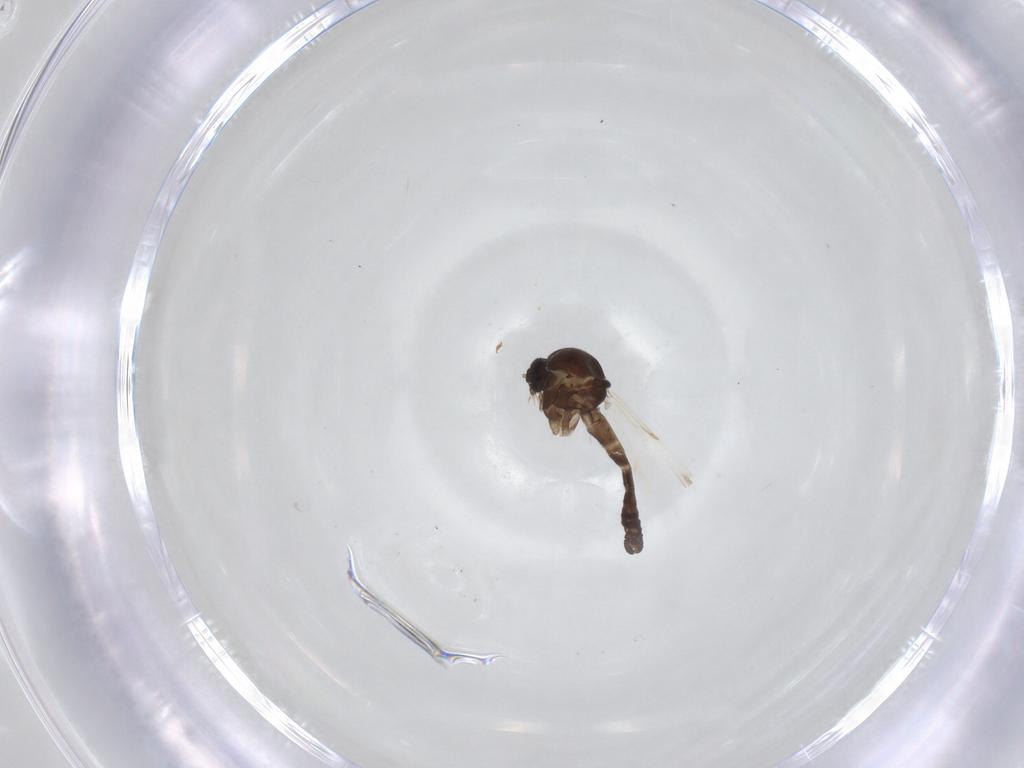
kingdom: Animalia
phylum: Arthropoda
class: Insecta
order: Diptera
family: Ceratopogonidae
